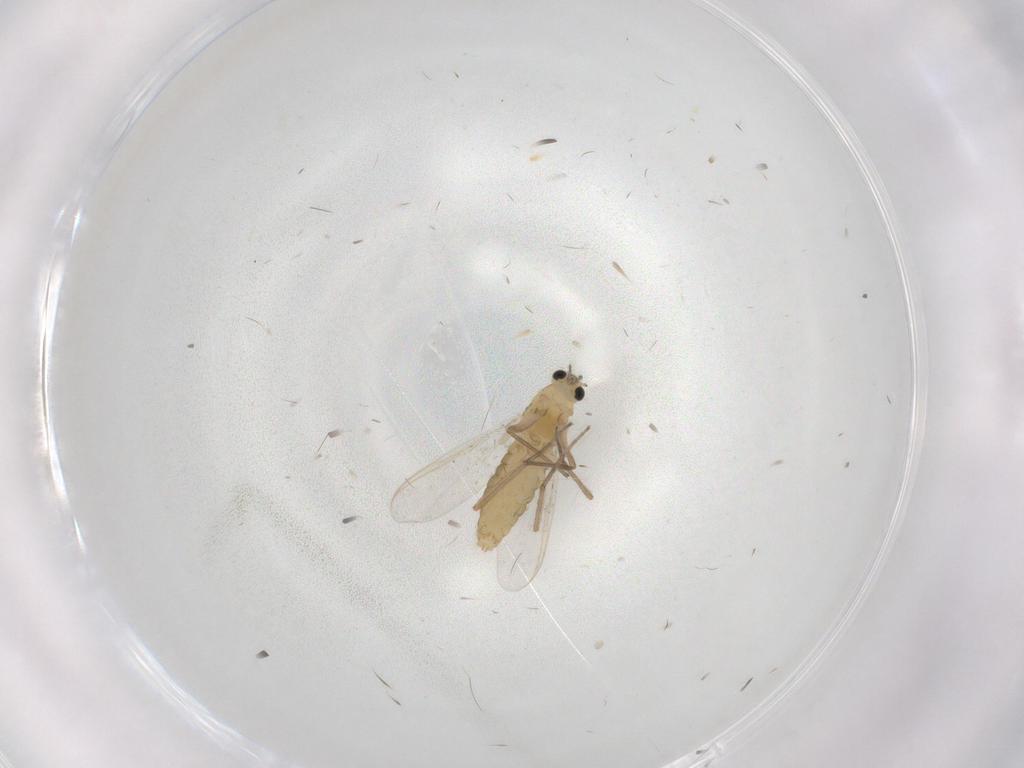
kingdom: Animalia
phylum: Arthropoda
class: Insecta
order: Diptera
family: Chironomidae
